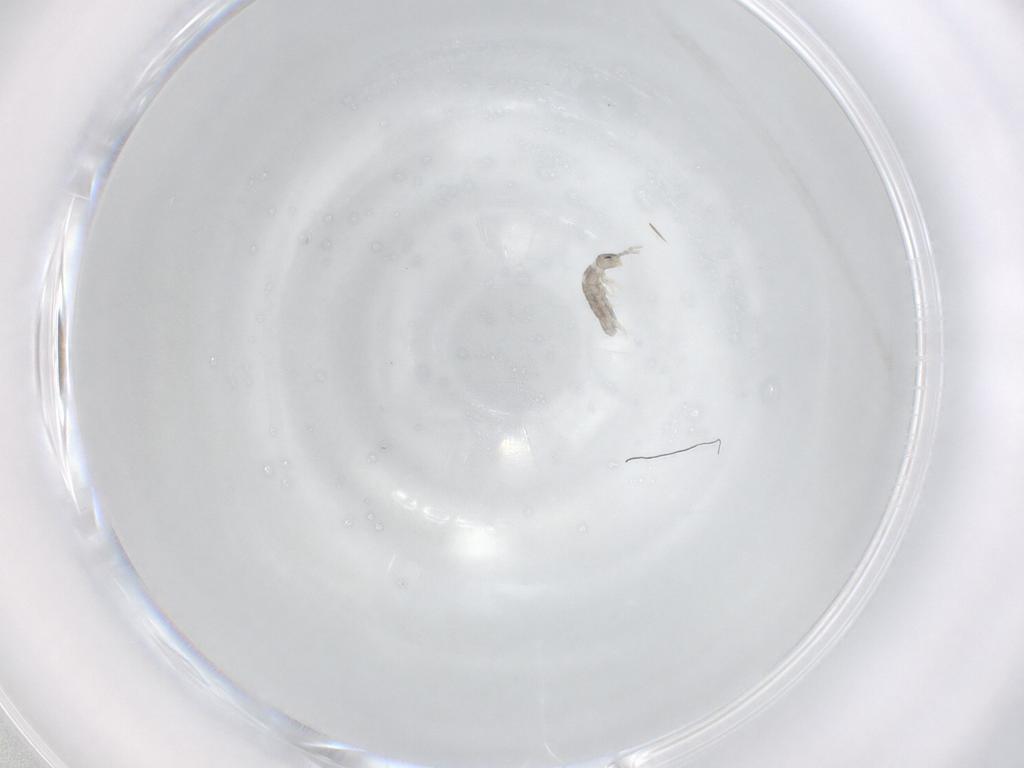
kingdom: Animalia
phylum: Arthropoda
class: Collembola
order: Entomobryomorpha
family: Isotomidae
